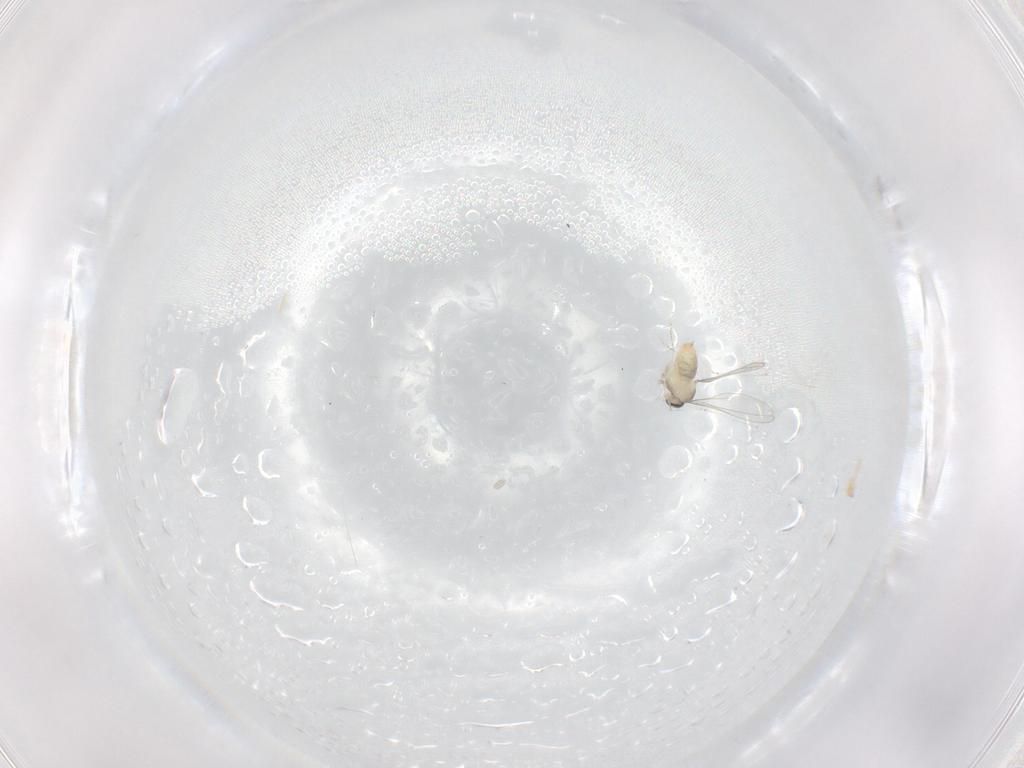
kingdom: Animalia
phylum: Arthropoda
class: Insecta
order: Diptera
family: Cecidomyiidae
